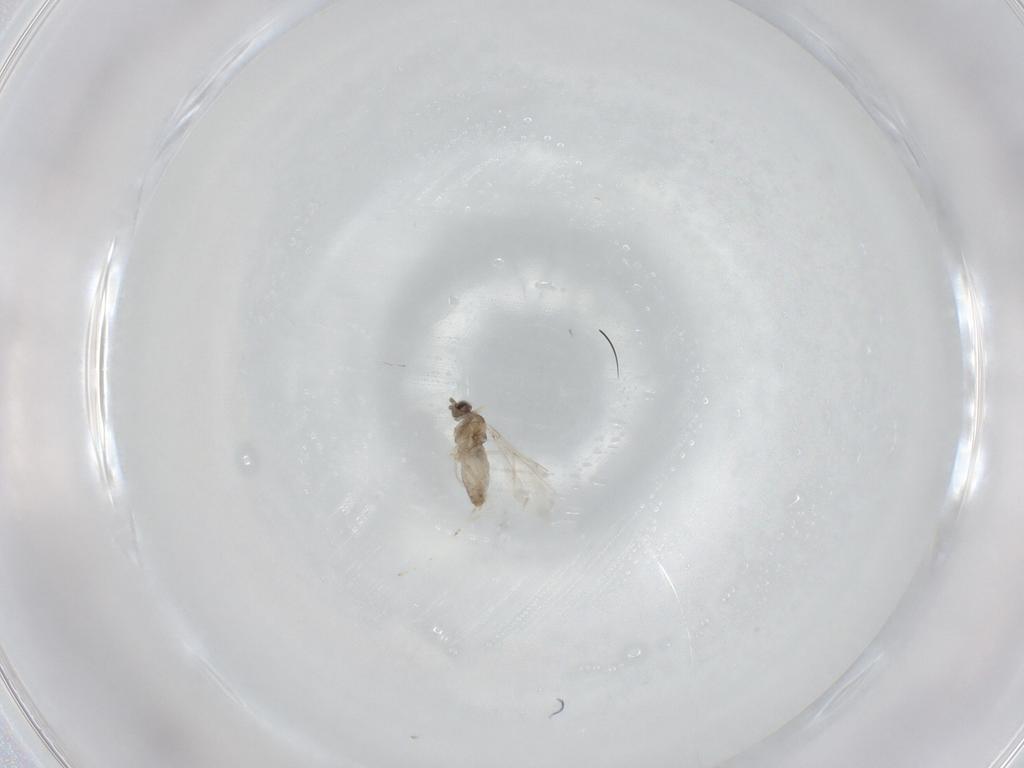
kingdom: Animalia
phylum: Arthropoda
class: Insecta
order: Diptera
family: Cecidomyiidae
